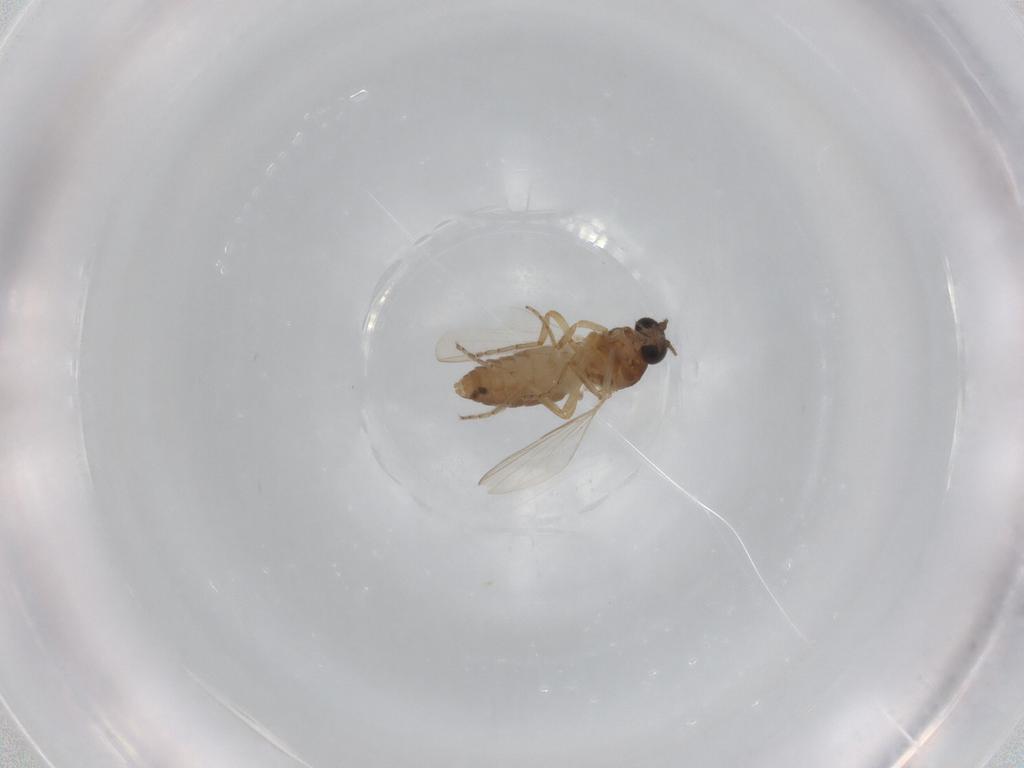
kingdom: Animalia
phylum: Arthropoda
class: Insecta
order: Diptera
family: Ceratopogonidae
